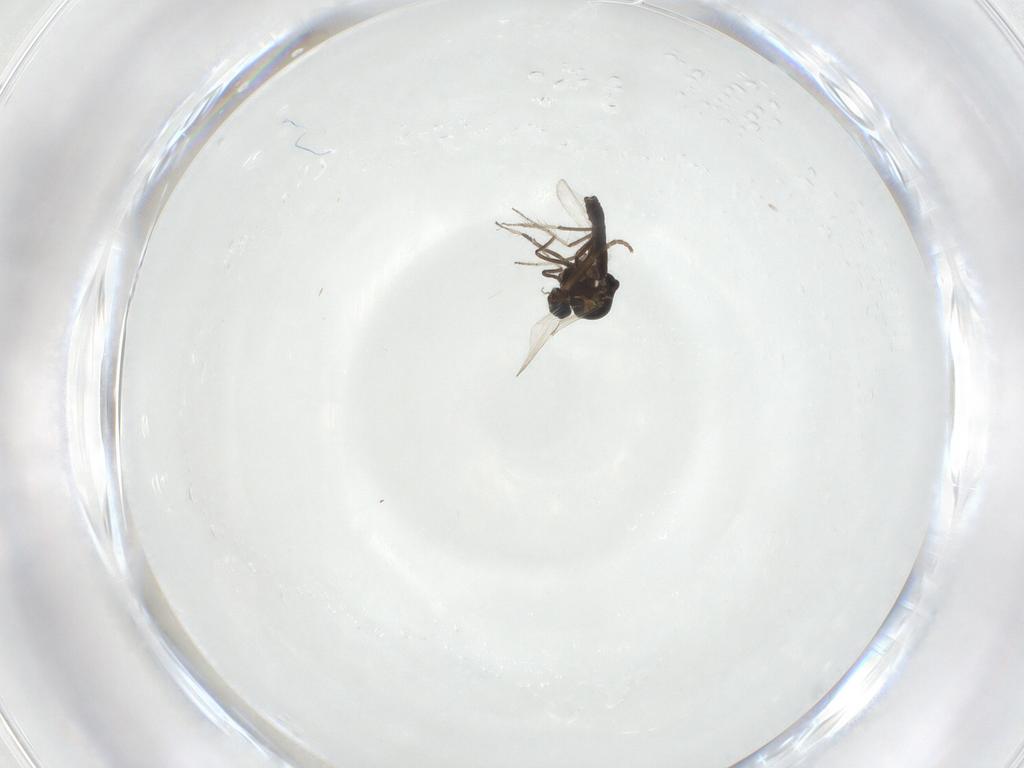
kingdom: Animalia
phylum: Arthropoda
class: Insecta
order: Diptera
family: Ceratopogonidae
